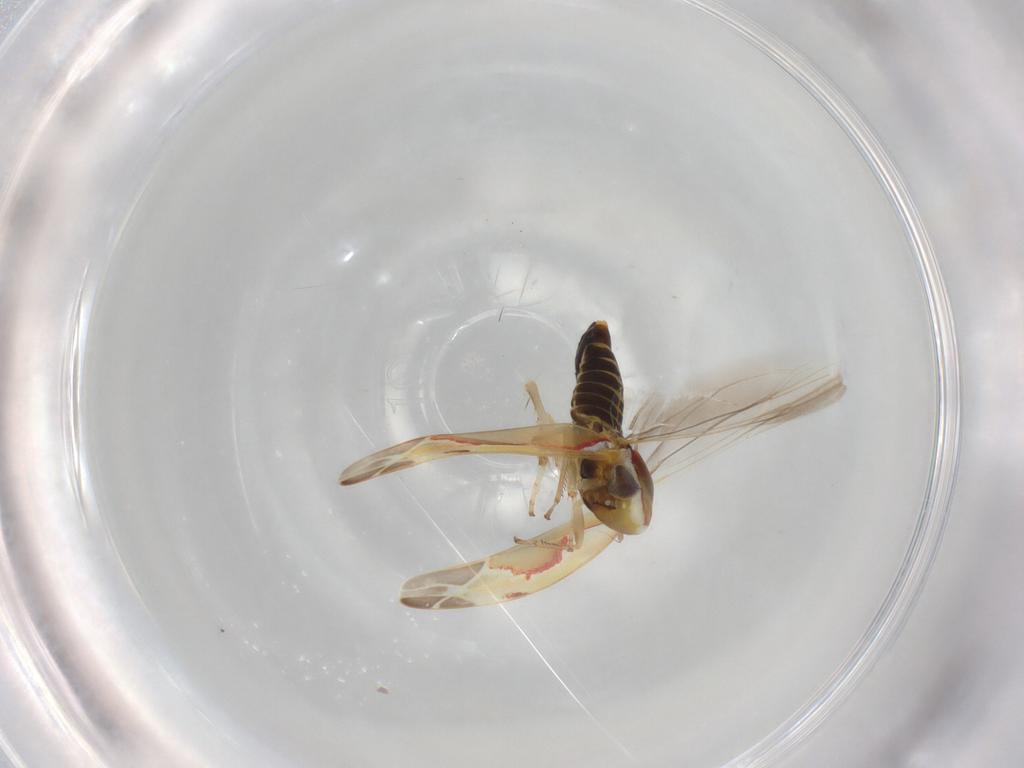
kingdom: Animalia
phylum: Arthropoda
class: Insecta
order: Hemiptera
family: Cicadellidae
